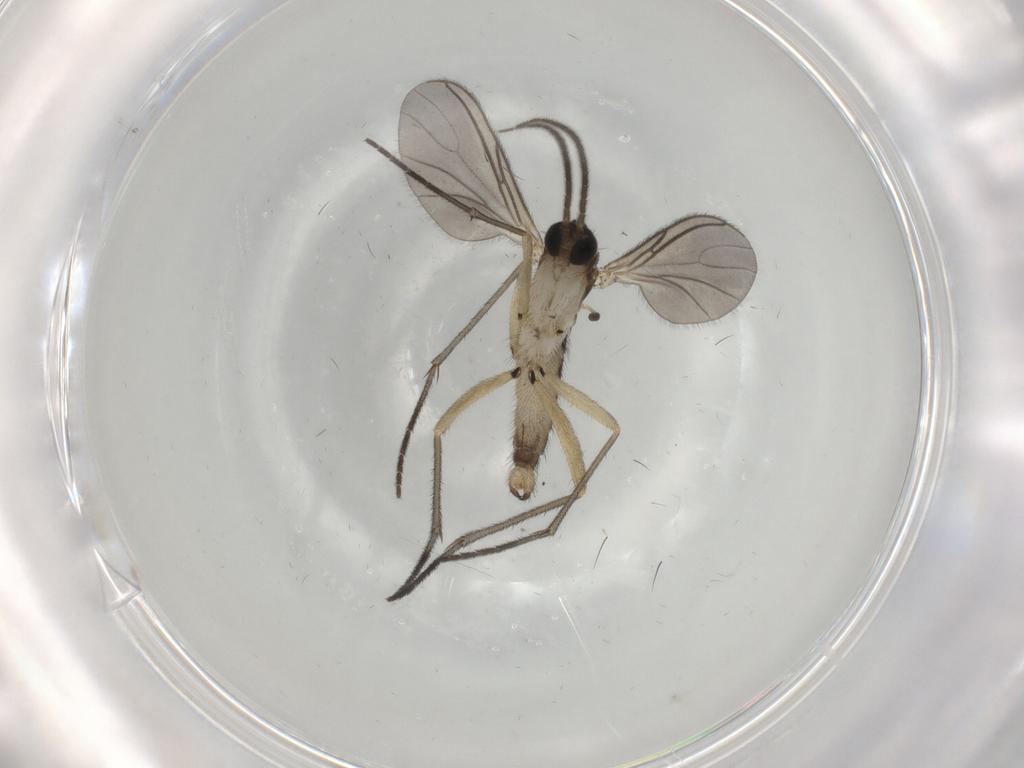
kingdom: Animalia
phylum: Arthropoda
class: Insecta
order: Diptera
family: Sciaridae
